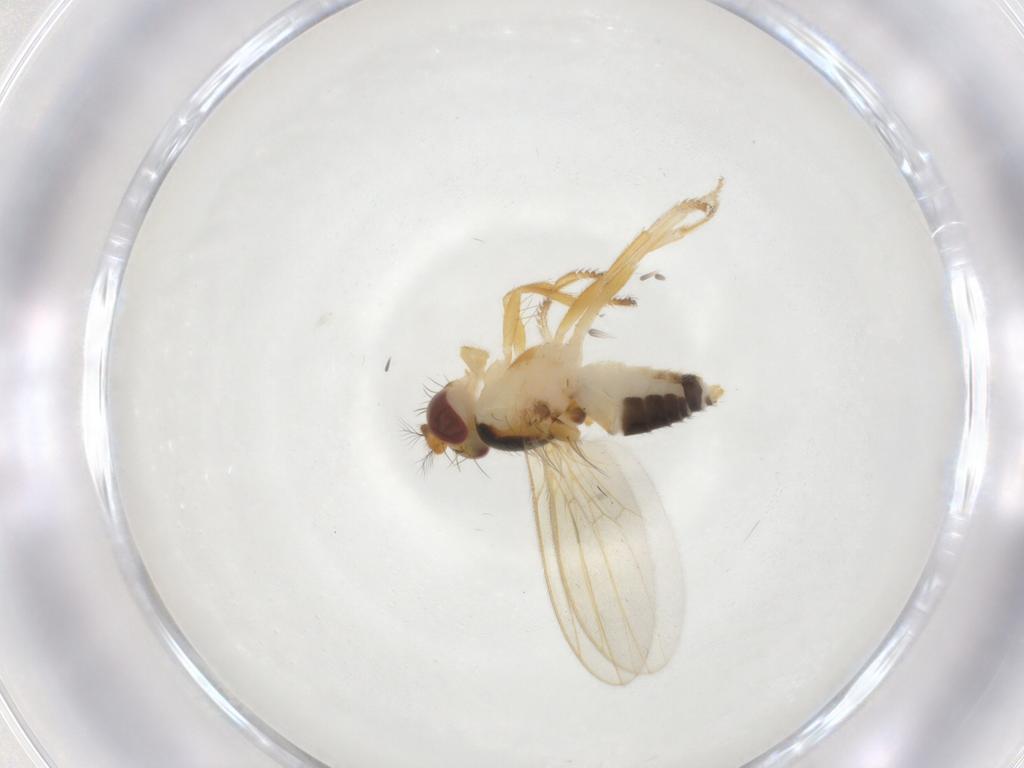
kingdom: Animalia
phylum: Arthropoda
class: Insecta
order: Diptera
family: Periscelididae
